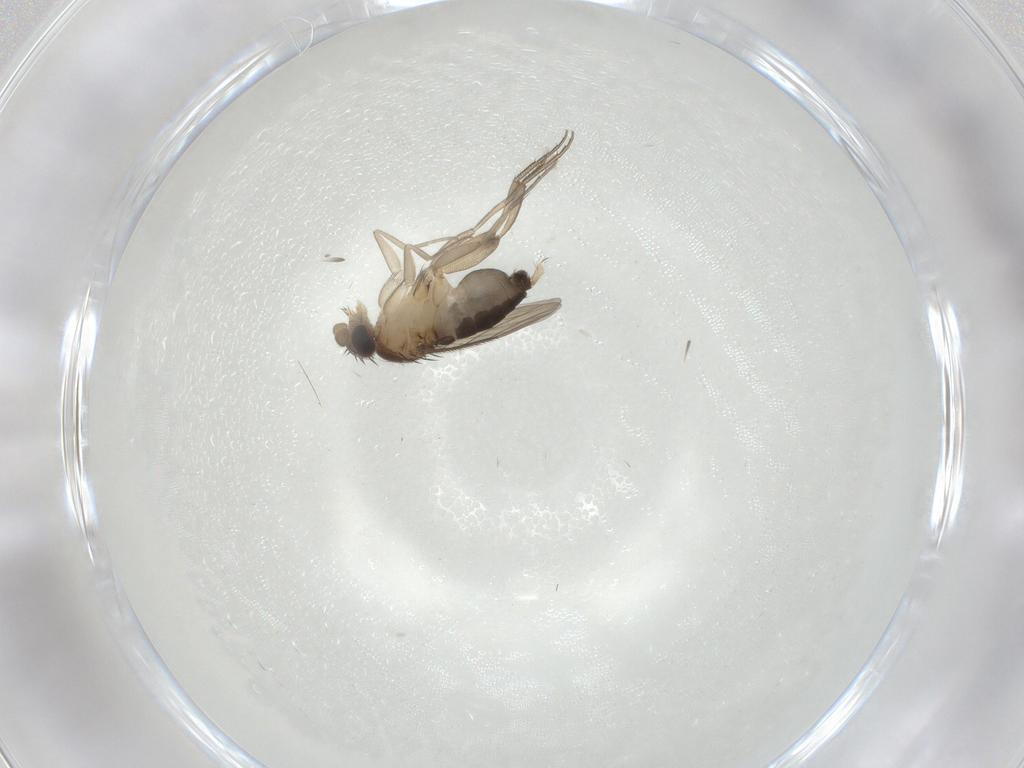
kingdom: Animalia
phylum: Arthropoda
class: Insecta
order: Diptera
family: Phoridae
